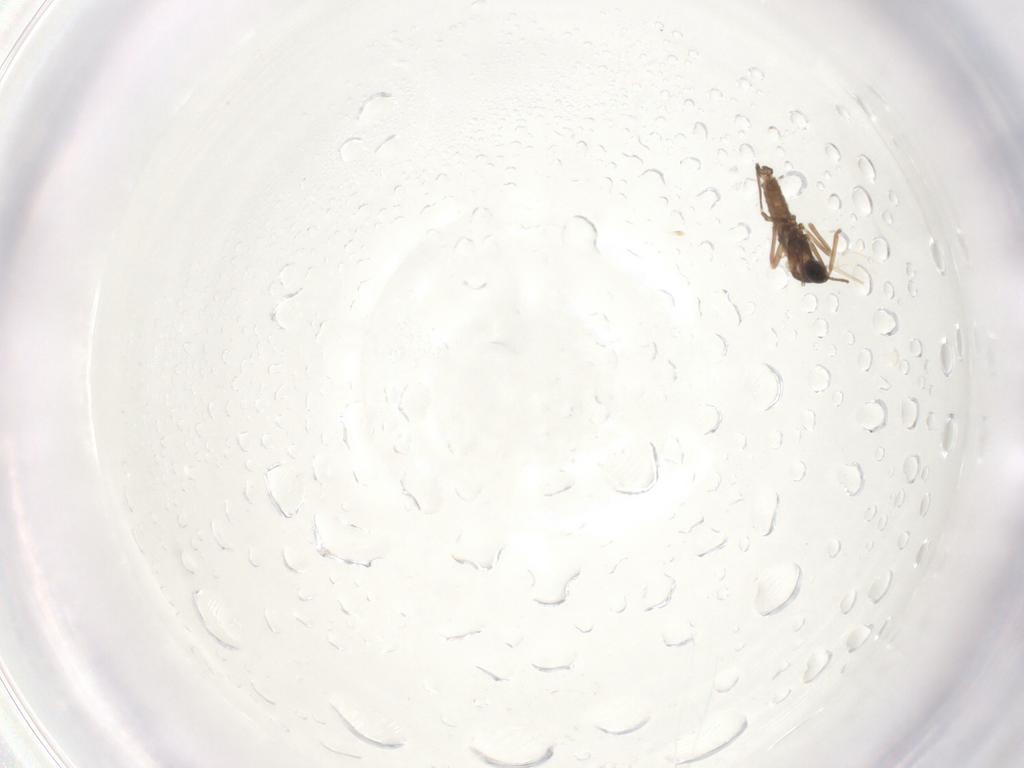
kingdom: Animalia
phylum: Arthropoda
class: Insecta
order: Diptera
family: Cecidomyiidae
